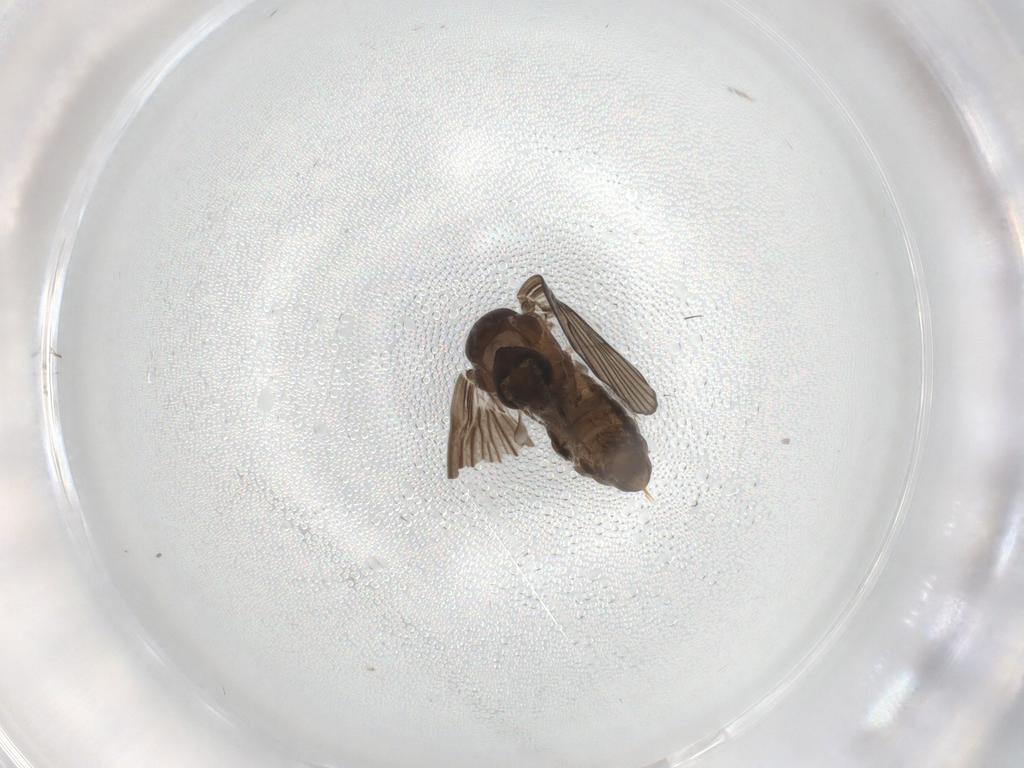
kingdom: Animalia
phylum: Arthropoda
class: Insecta
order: Diptera
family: Psychodidae
